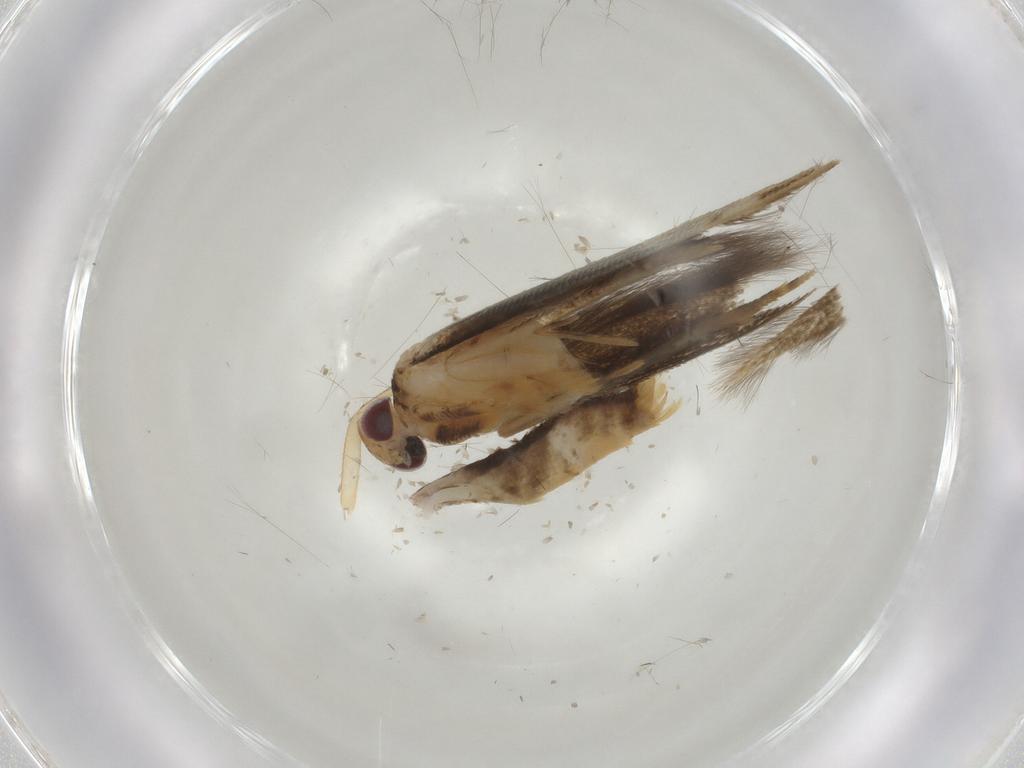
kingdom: Animalia
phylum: Arthropoda
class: Insecta
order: Lepidoptera
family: Momphidae
